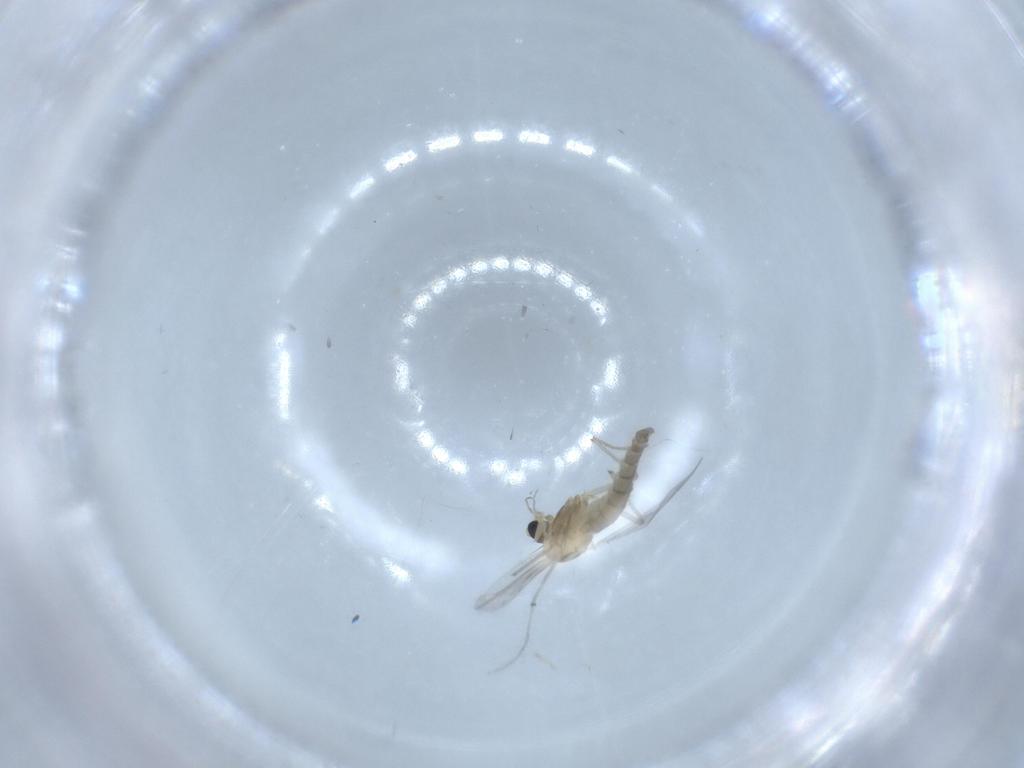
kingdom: Animalia
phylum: Arthropoda
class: Insecta
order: Diptera
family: Chironomidae
